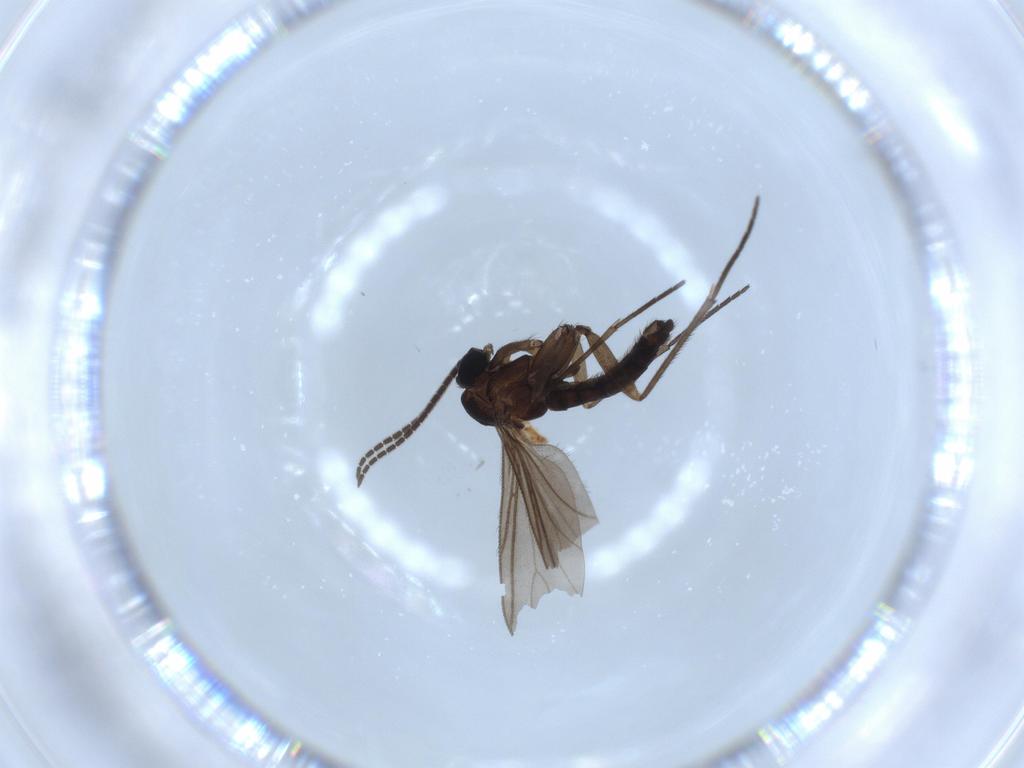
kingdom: Animalia
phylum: Arthropoda
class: Insecta
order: Diptera
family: Sciaridae
